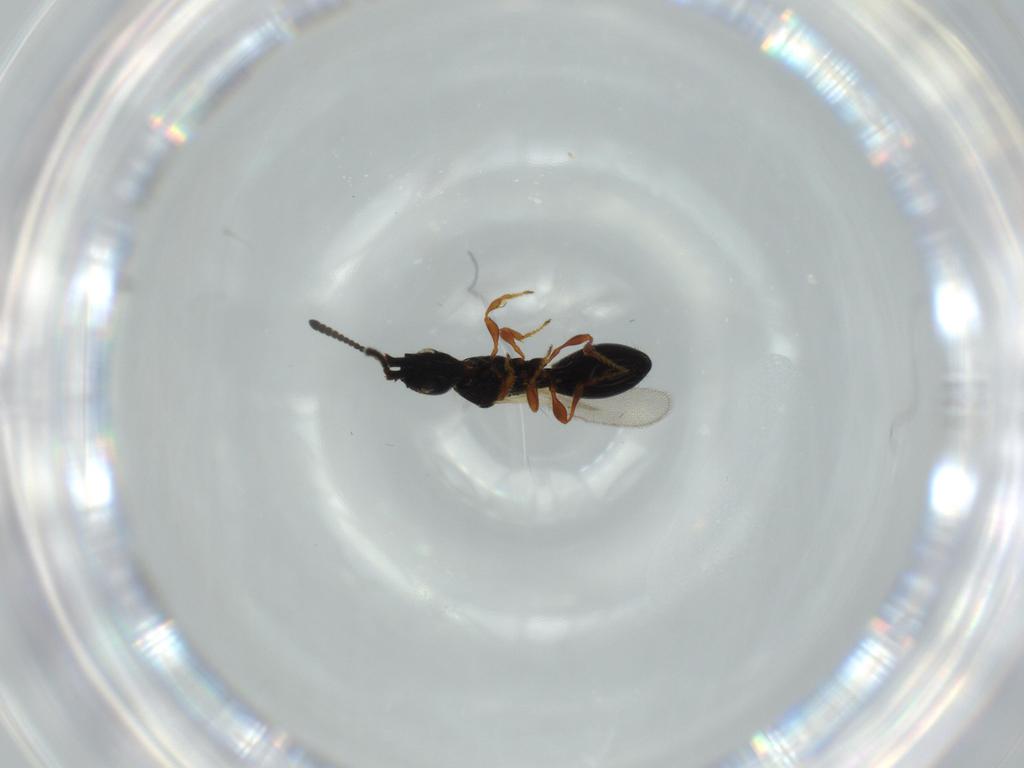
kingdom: Animalia
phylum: Arthropoda
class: Insecta
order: Hymenoptera
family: Diapriidae
